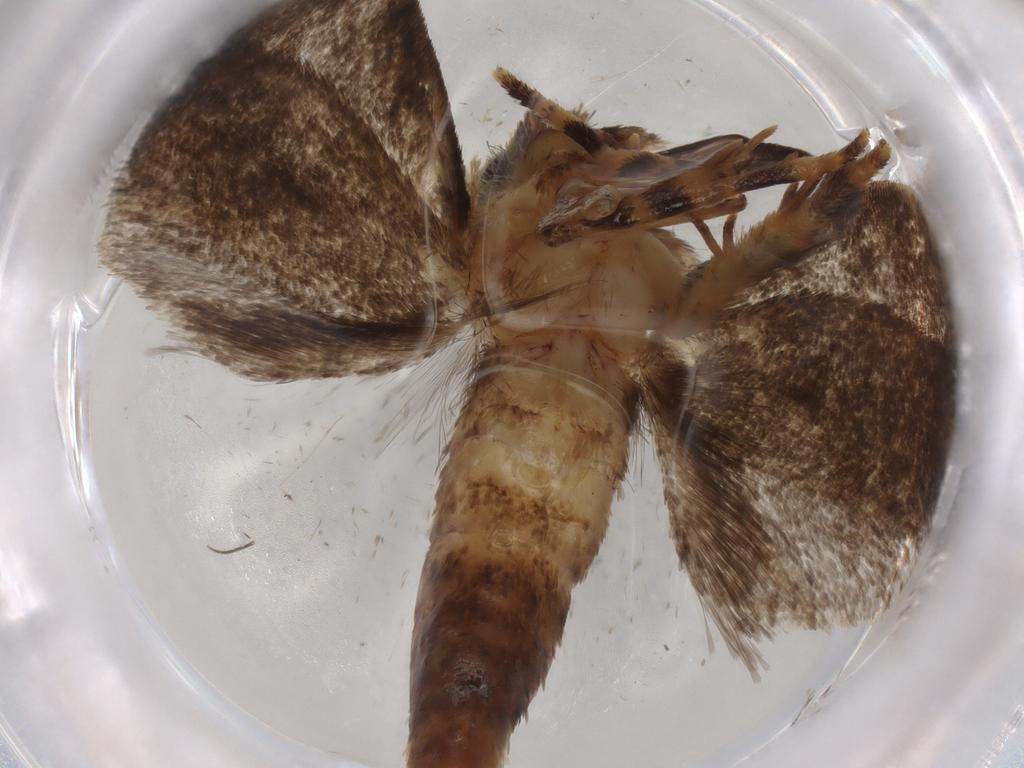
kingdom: Animalia
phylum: Arthropoda
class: Insecta
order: Lepidoptera
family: Tineidae
